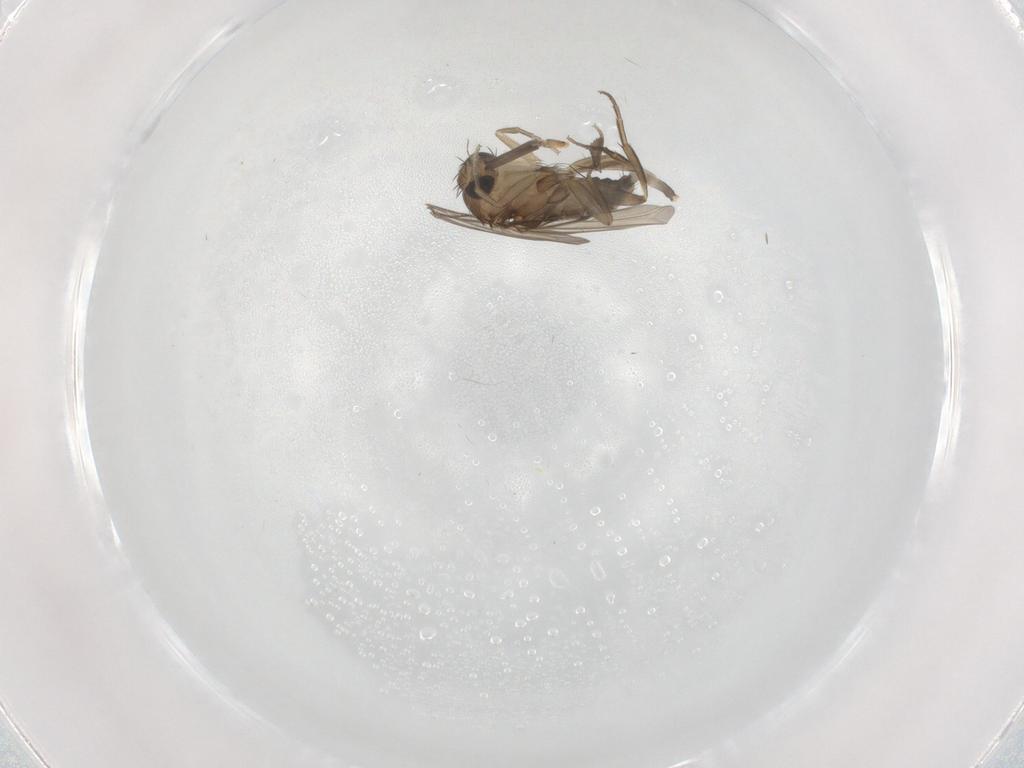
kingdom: Animalia
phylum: Arthropoda
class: Insecta
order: Diptera
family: Phoridae
